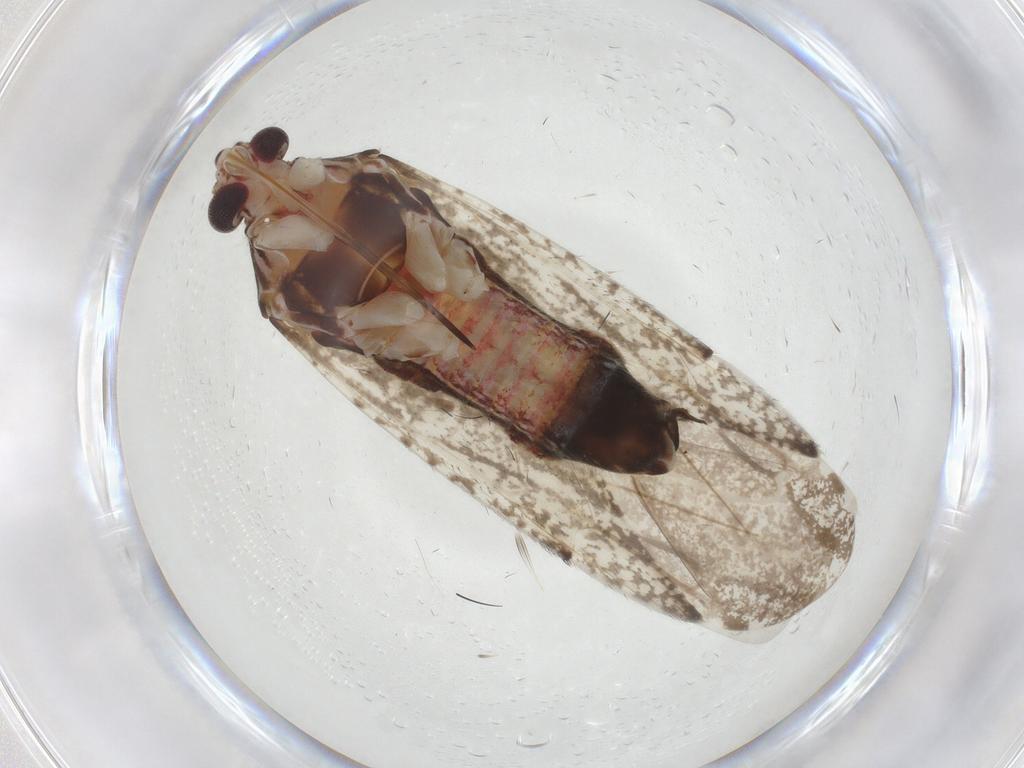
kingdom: Animalia
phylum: Arthropoda
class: Insecta
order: Hemiptera
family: Miridae
